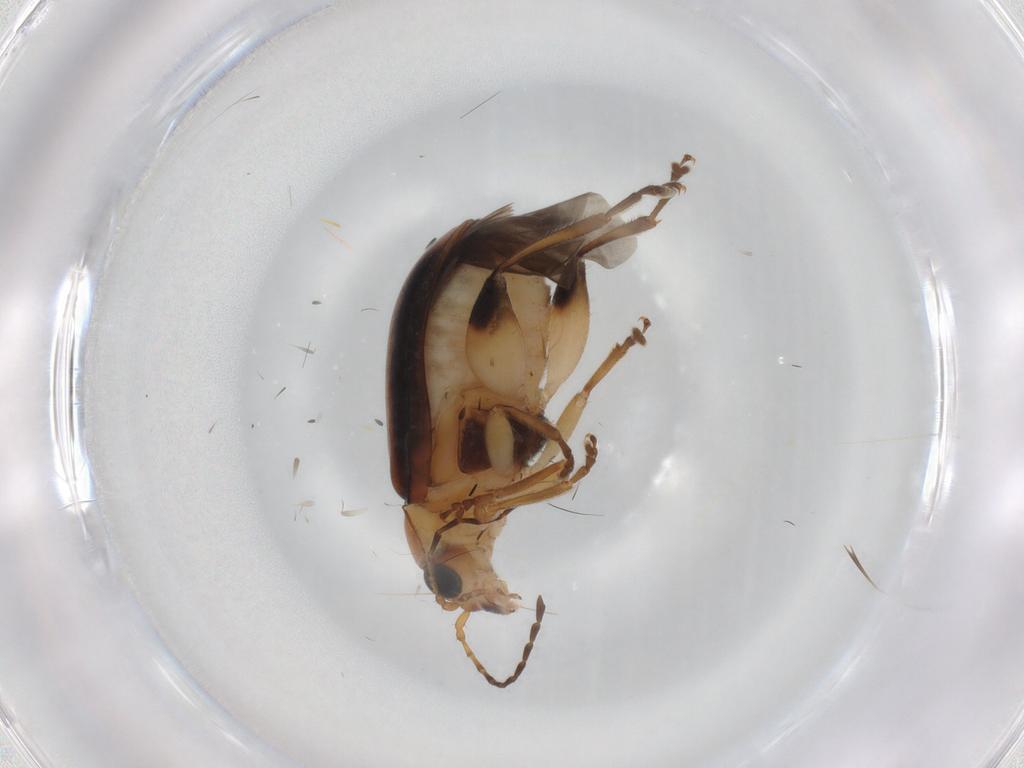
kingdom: Animalia
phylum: Arthropoda
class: Insecta
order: Coleoptera
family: Chrysomelidae
